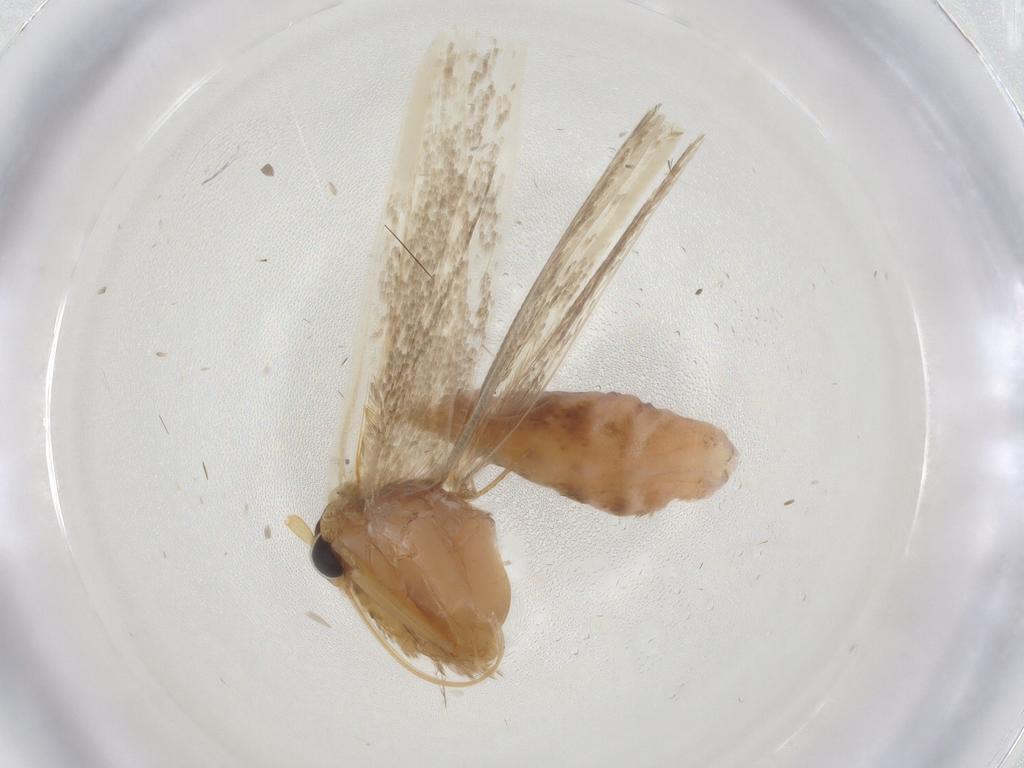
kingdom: Animalia
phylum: Arthropoda
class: Insecta
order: Lepidoptera
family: Blastobasidae
